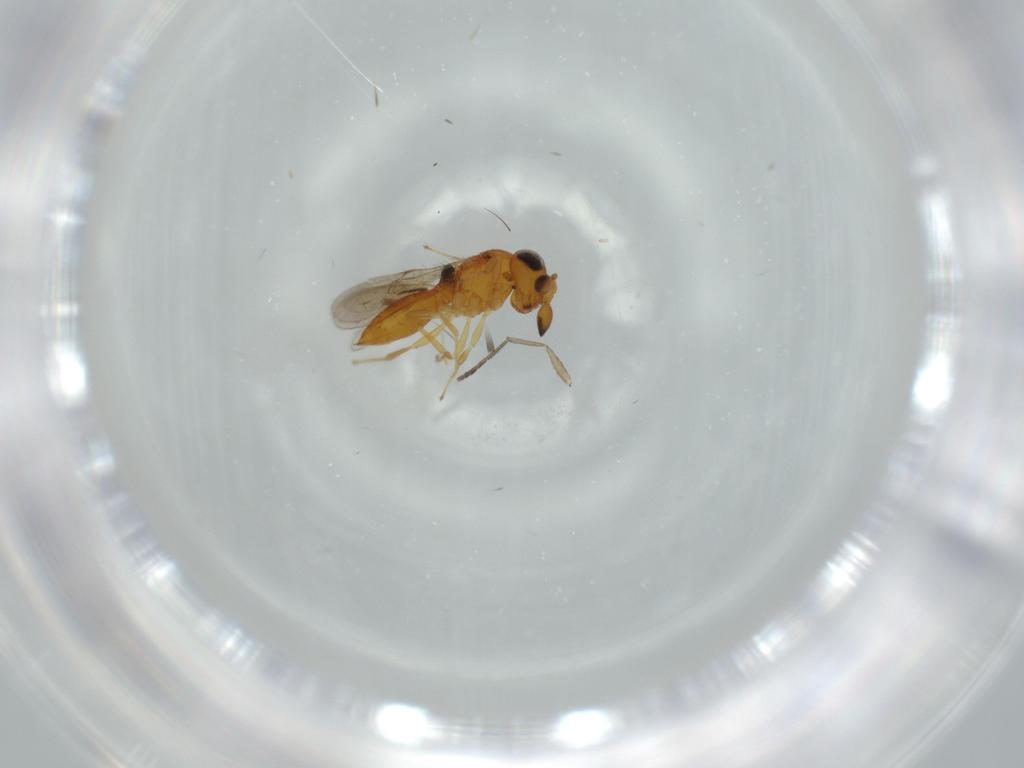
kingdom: Animalia
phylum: Arthropoda
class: Insecta
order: Hymenoptera
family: Scelionidae
